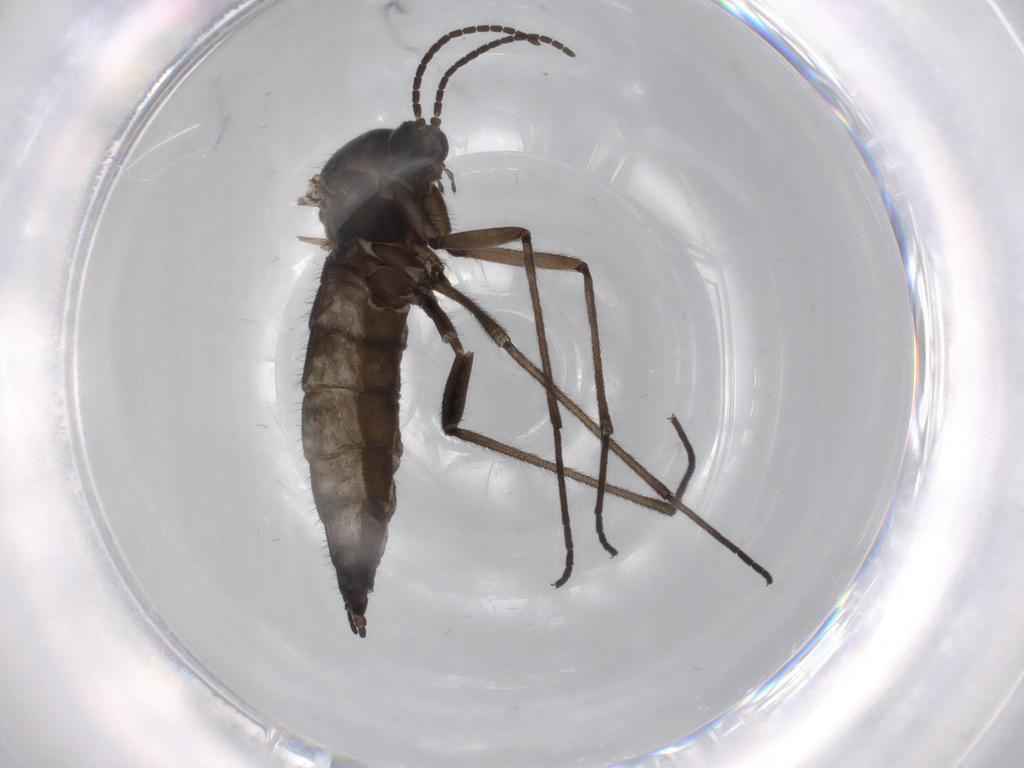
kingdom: Animalia
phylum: Arthropoda
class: Insecta
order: Diptera
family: Sciaridae
